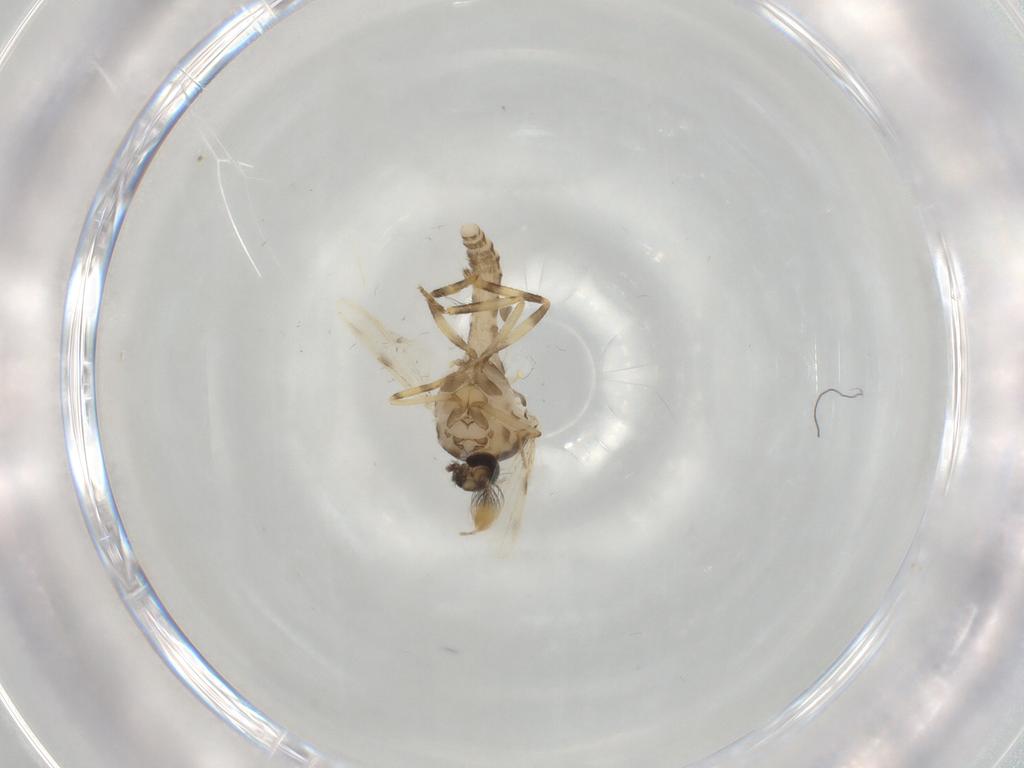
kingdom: Animalia
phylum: Arthropoda
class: Insecta
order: Diptera
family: Ceratopogonidae
